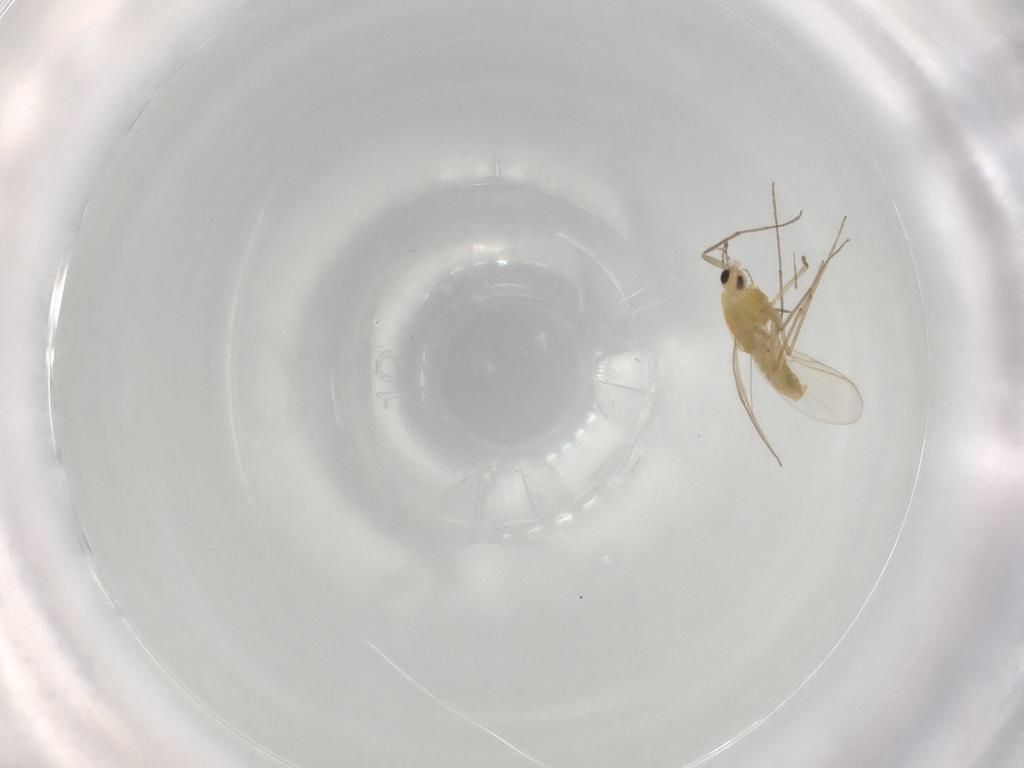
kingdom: Animalia
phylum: Arthropoda
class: Insecta
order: Diptera
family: Chironomidae
